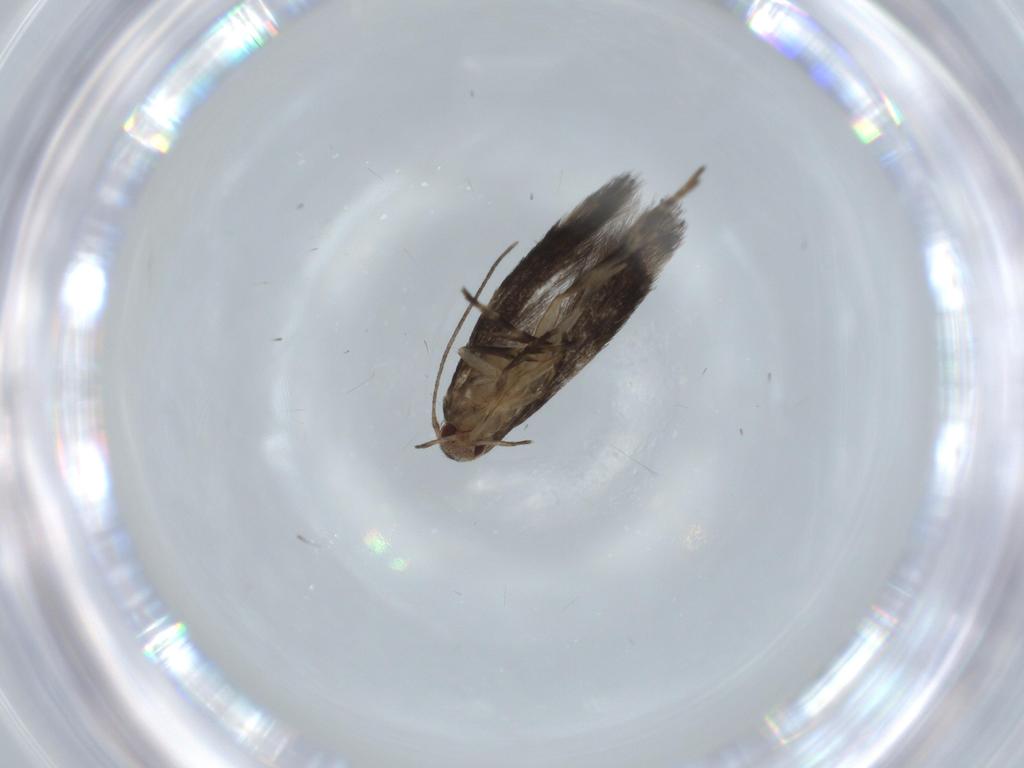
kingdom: Animalia
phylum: Arthropoda
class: Insecta
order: Lepidoptera
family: Cosmopterigidae
